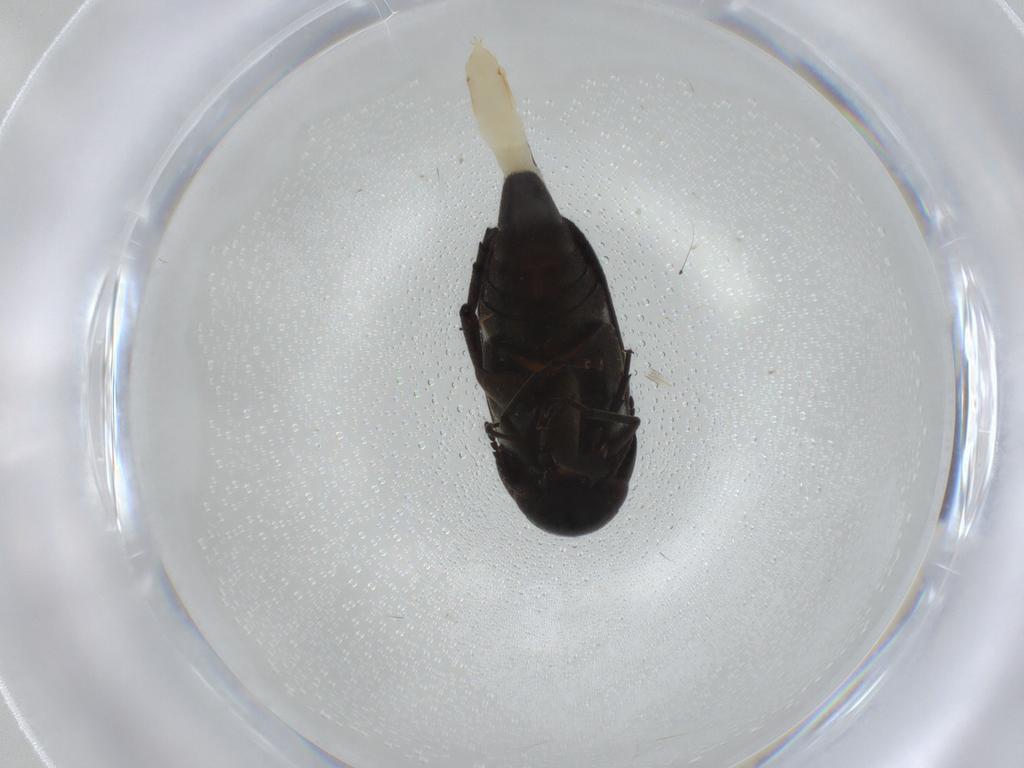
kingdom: Animalia
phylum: Arthropoda
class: Insecta
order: Coleoptera
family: Mordellidae
